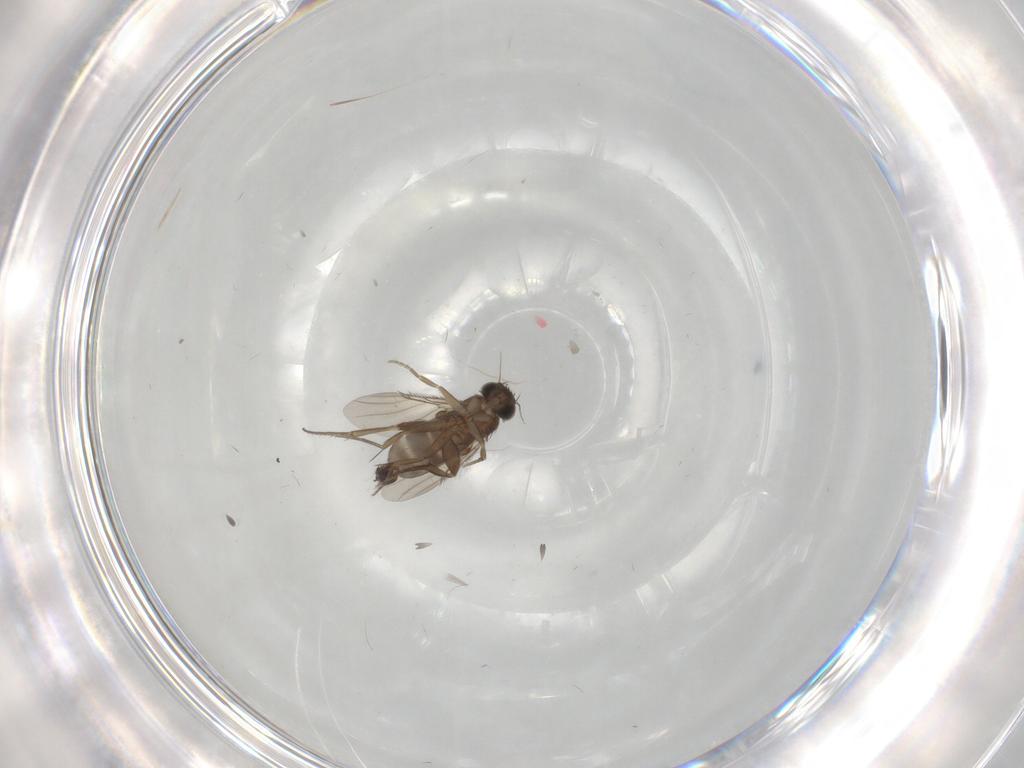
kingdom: Animalia
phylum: Arthropoda
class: Insecta
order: Diptera
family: Phoridae
